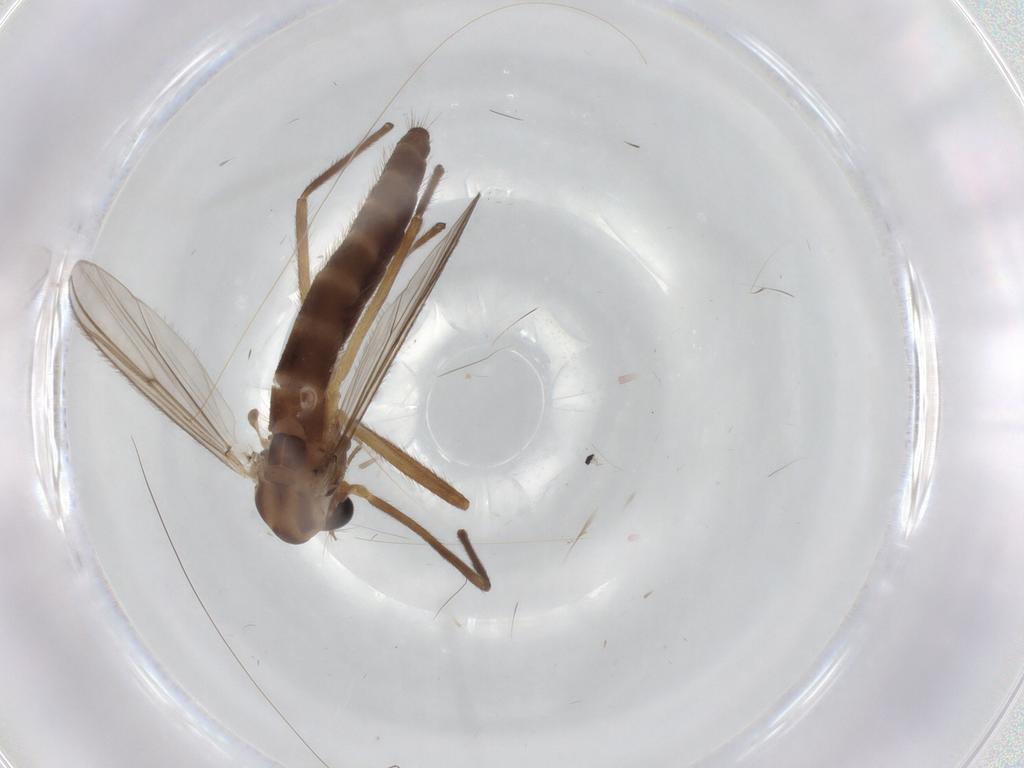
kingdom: Animalia
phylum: Arthropoda
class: Insecta
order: Diptera
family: Chironomidae
